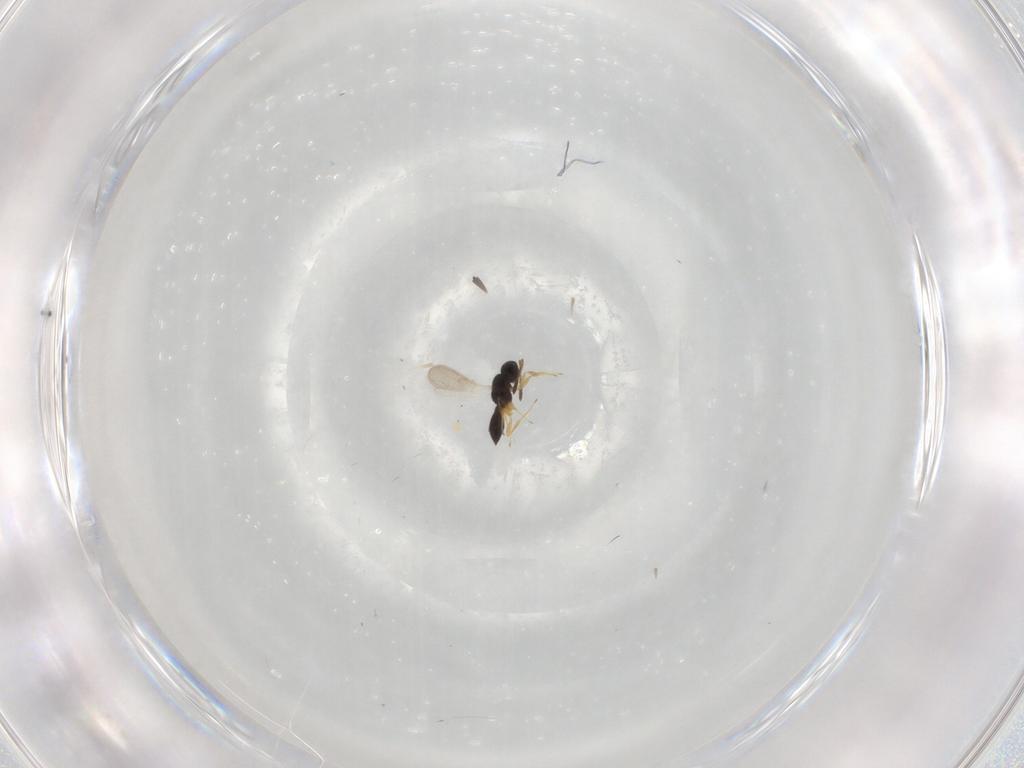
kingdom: Animalia
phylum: Arthropoda
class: Insecta
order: Hymenoptera
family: Scelionidae
